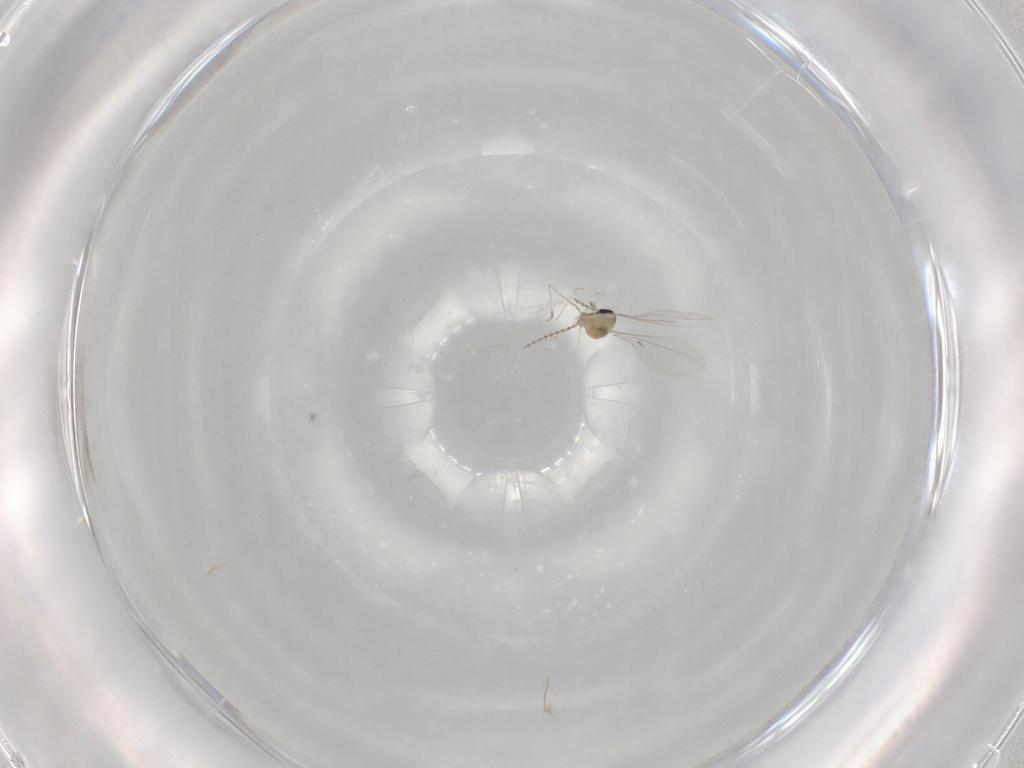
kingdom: Animalia
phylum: Arthropoda
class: Insecta
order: Diptera
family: Cecidomyiidae
